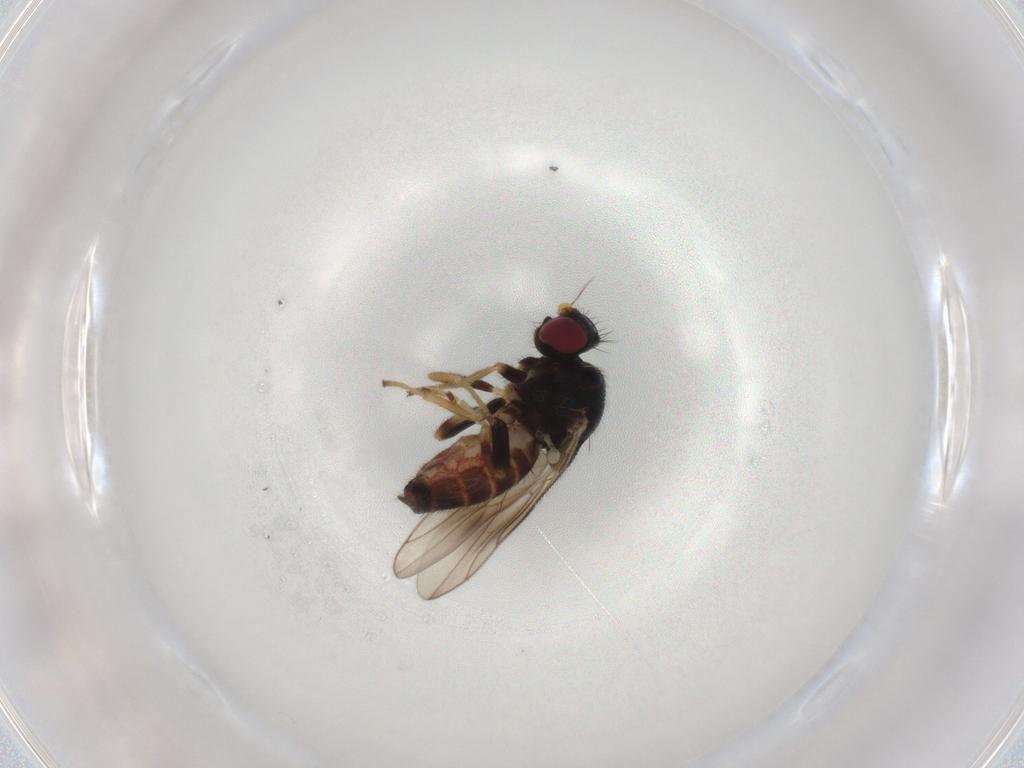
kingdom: Animalia
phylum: Arthropoda
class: Insecta
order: Diptera
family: Chloropidae
